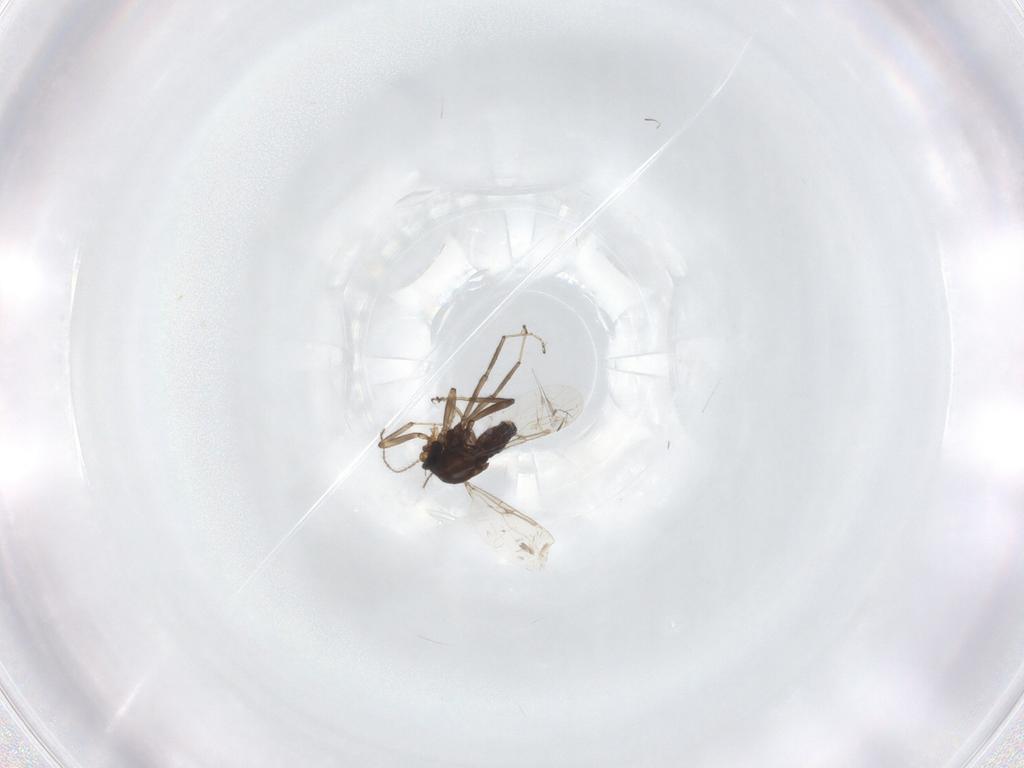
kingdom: Animalia
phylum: Arthropoda
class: Insecta
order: Diptera
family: Ceratopogonidae
